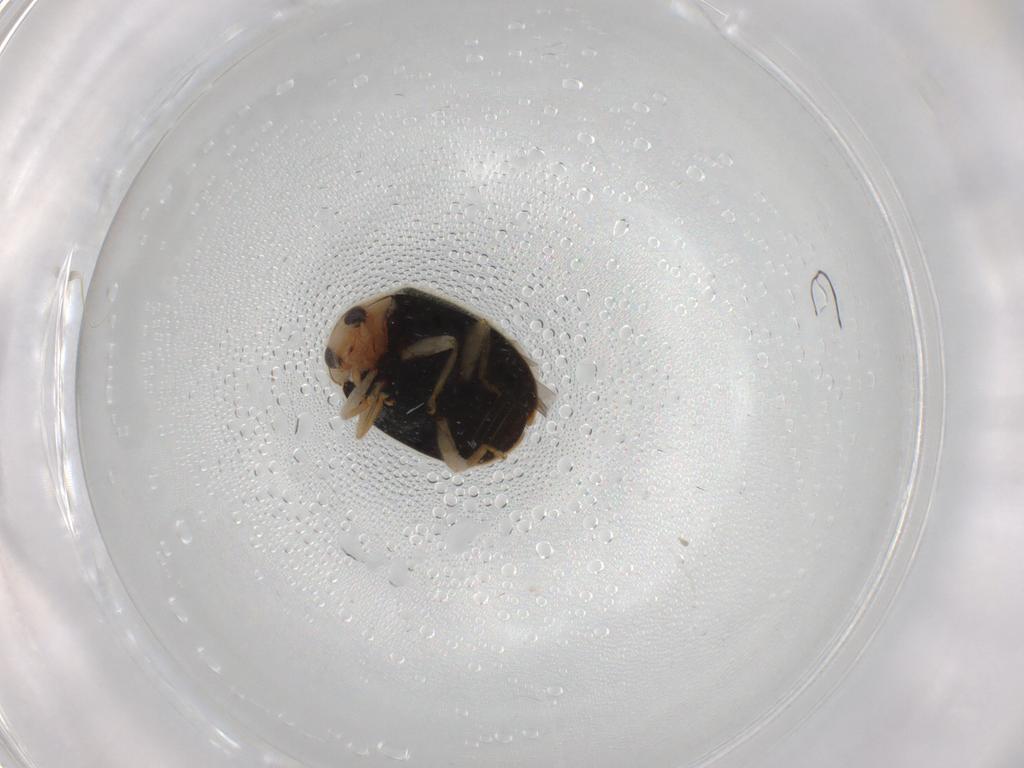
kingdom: Animalia
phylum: Arthropoda
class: Insecta
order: Coleoptera
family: Coccinellidae
